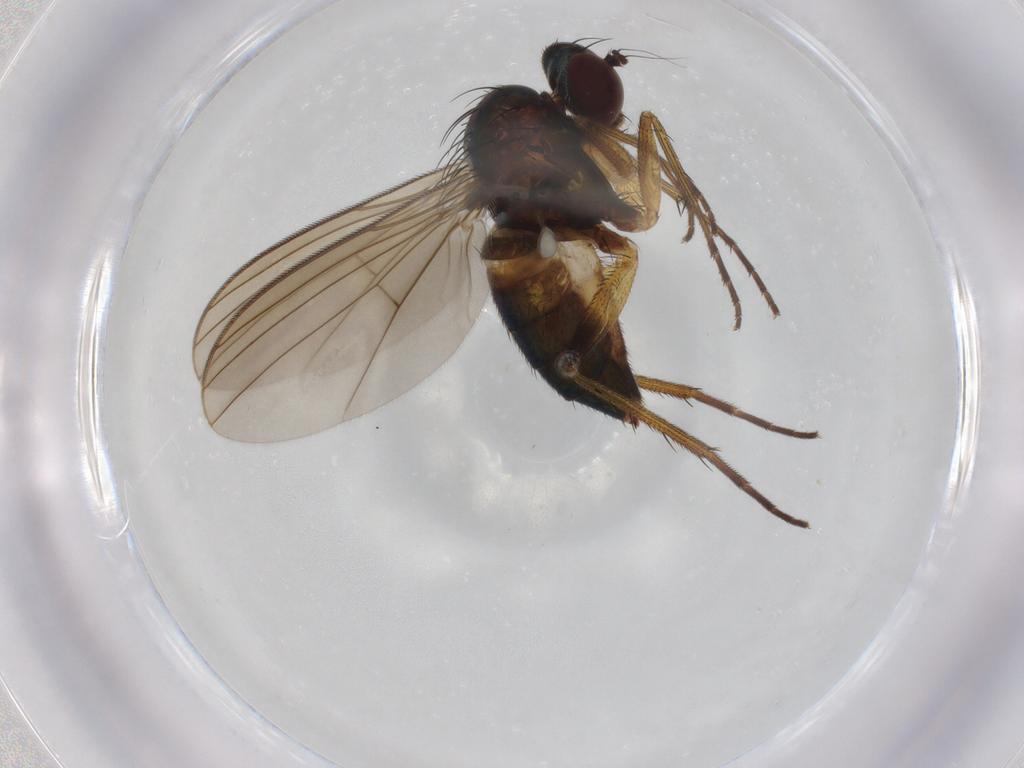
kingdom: Animalia
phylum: Arthropoda
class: Insecta
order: Diptera
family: Dolichopodidae
